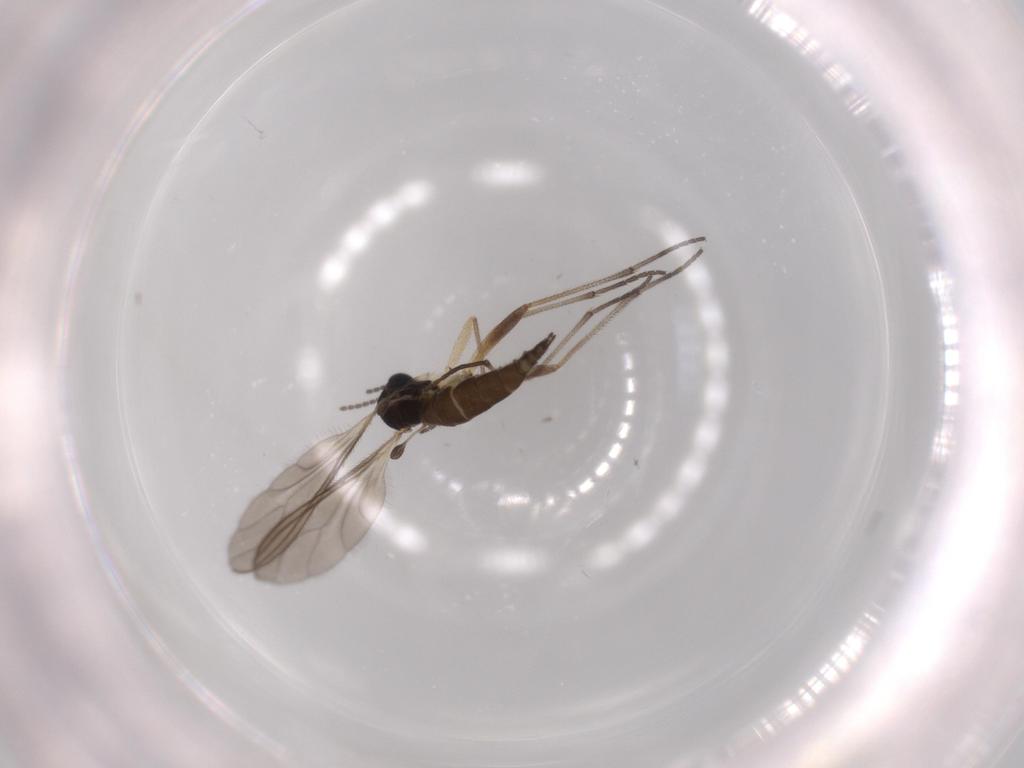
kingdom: Animalia
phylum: Arthropoda
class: Insecta
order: Diptera
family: Sciaridae
